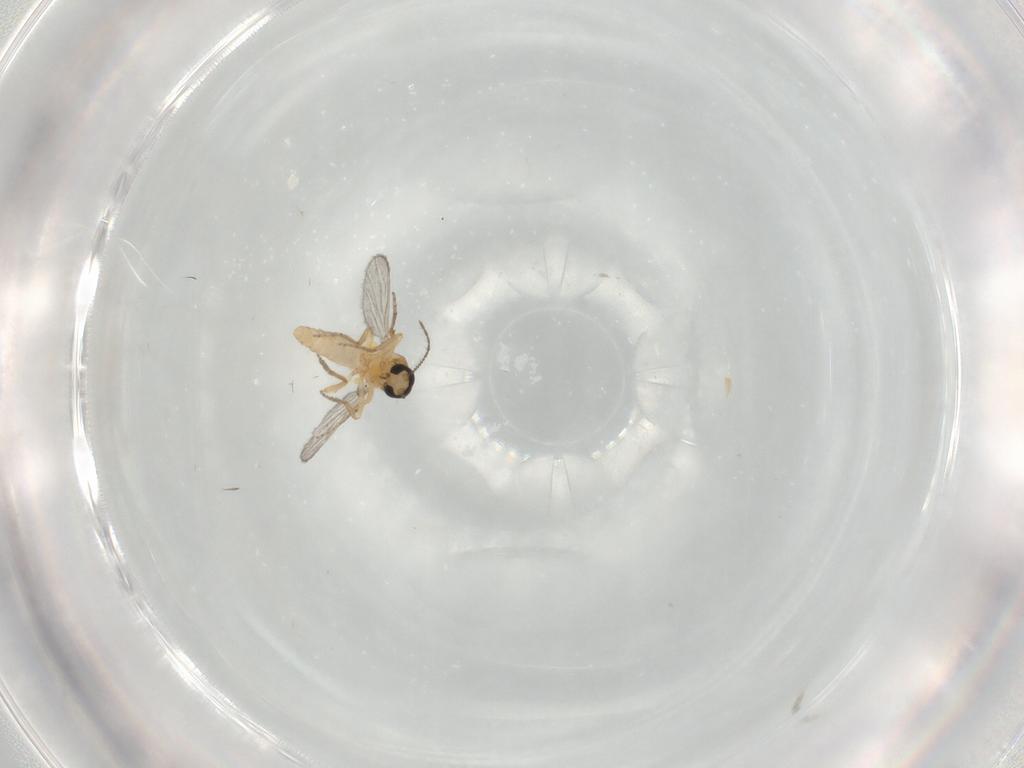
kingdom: Animalia
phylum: Arthropoda
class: Insecta
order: Diptera
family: Ceratopogonidae
